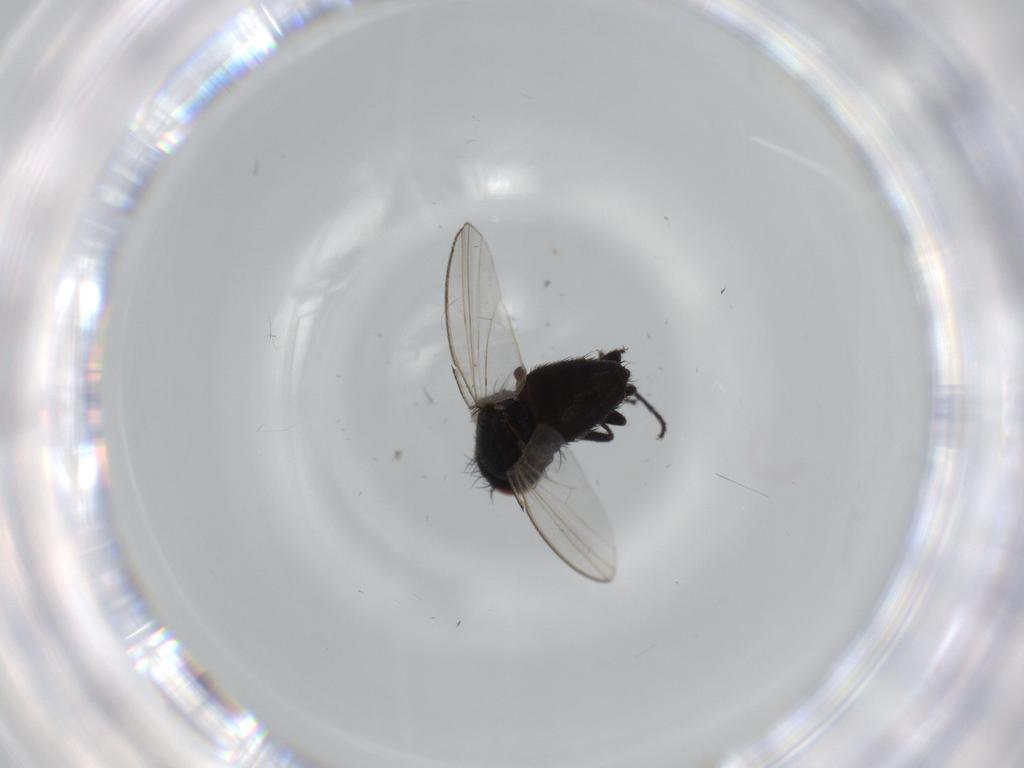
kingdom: Animalia
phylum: Arthropoda
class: Insecta
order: Diptera
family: Milichiidae
